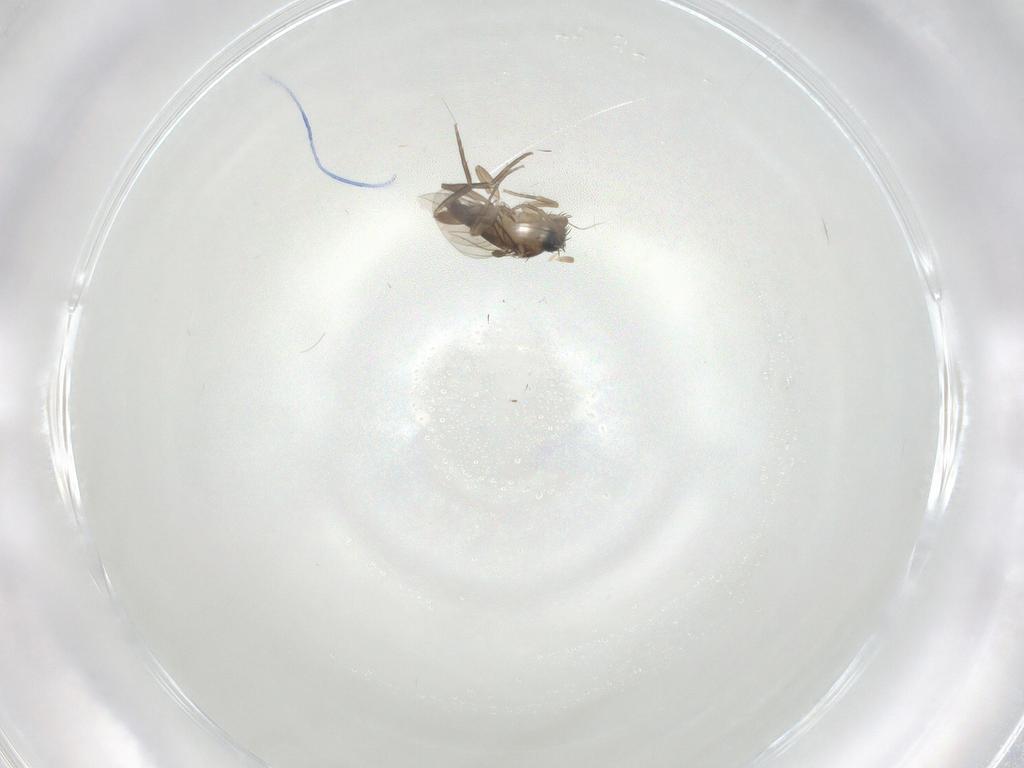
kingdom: Animalia
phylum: Arthropoda
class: Insecta
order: Diptera
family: Phoridae
